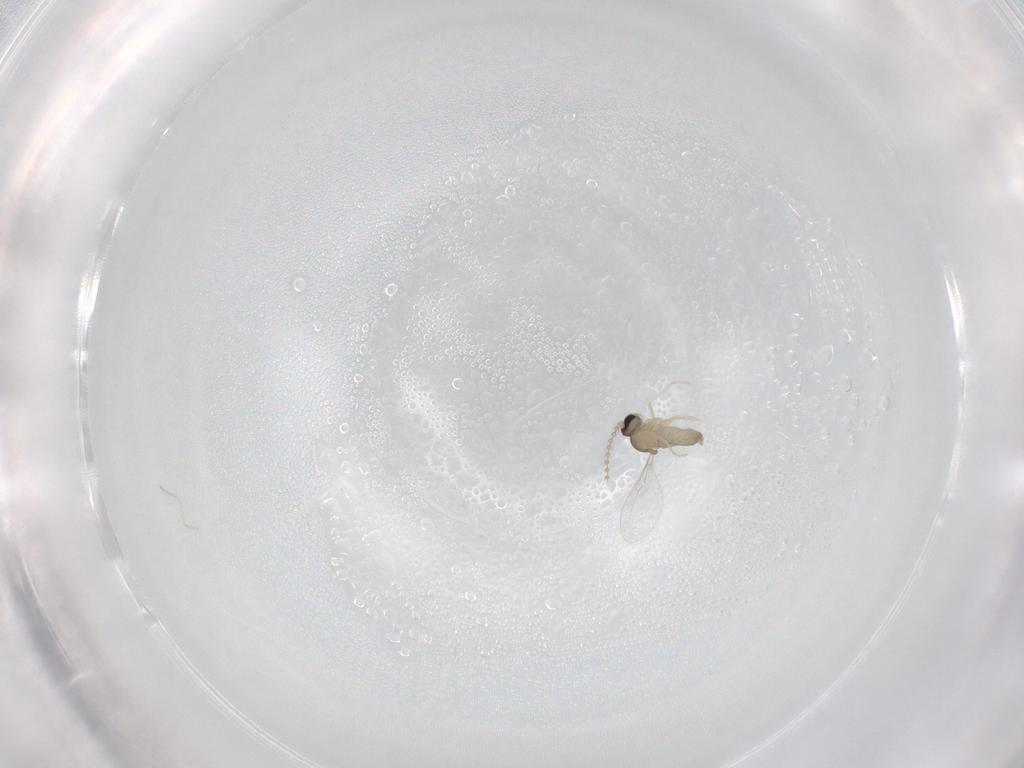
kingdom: Animalia
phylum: Arthropoda
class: Insecta
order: Diptera
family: Cecidomyiidae
